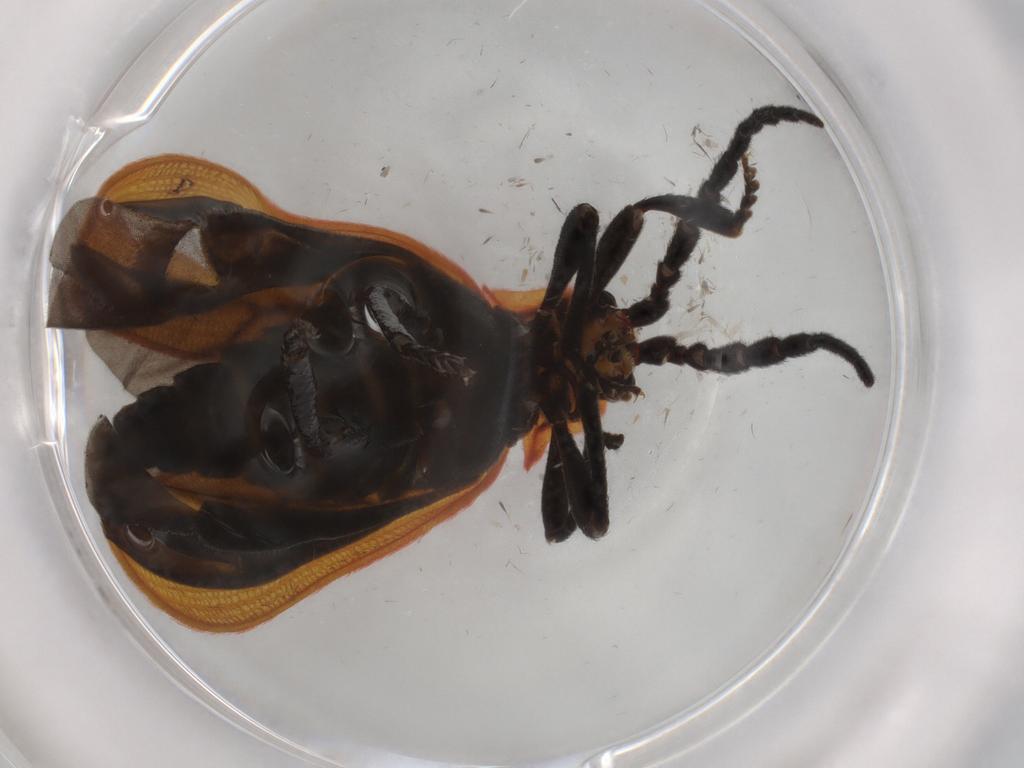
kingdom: Animalia
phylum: Arthropoda
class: Insecta
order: Coleoptera
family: Lycidae
